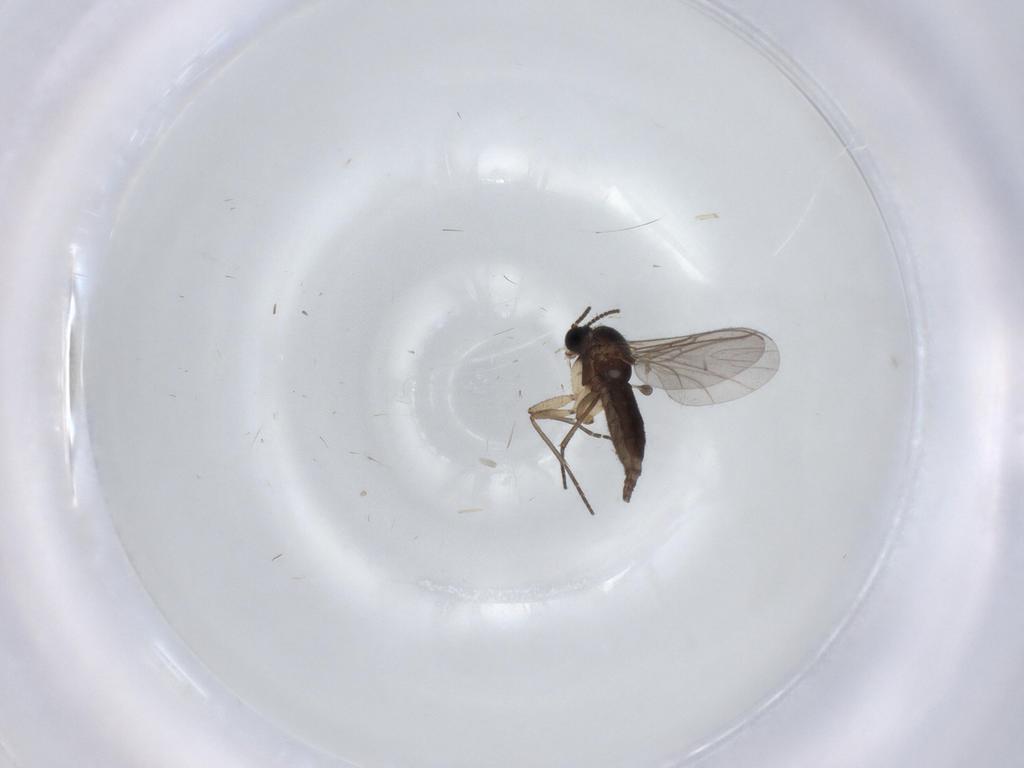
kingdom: Animalia
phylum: Arthropoda
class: Insecta
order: Diptera
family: Sciaridae
